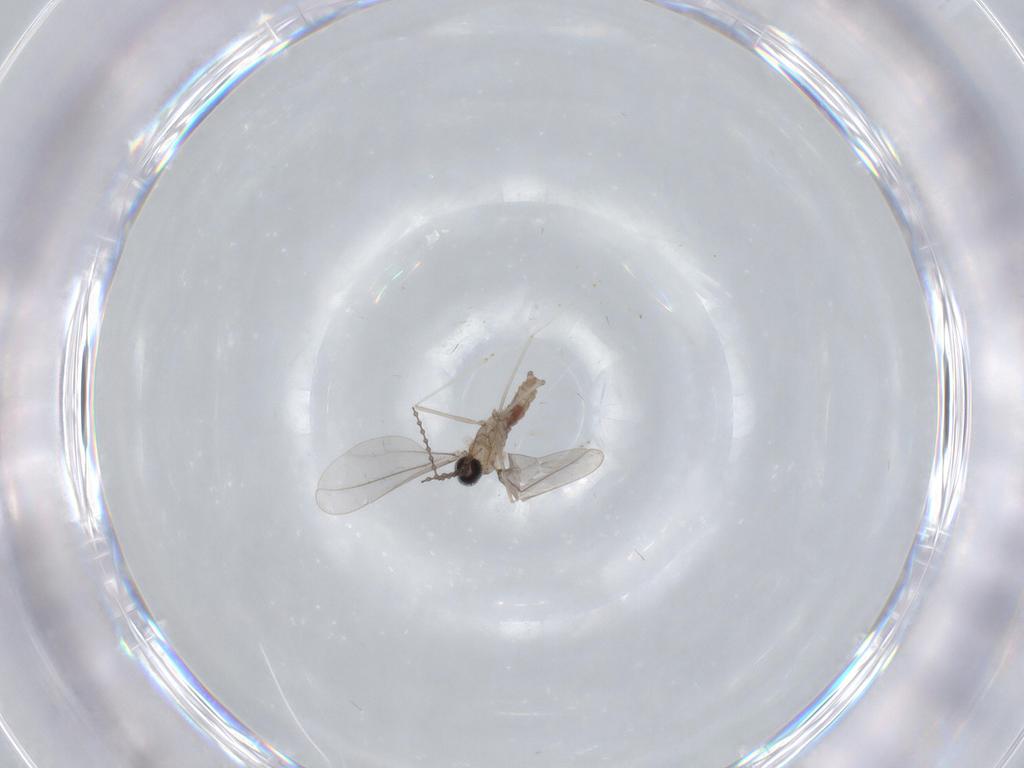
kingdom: Animalia
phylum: Arthropoda
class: Insecta
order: Diptera
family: Cecidomyiidae
